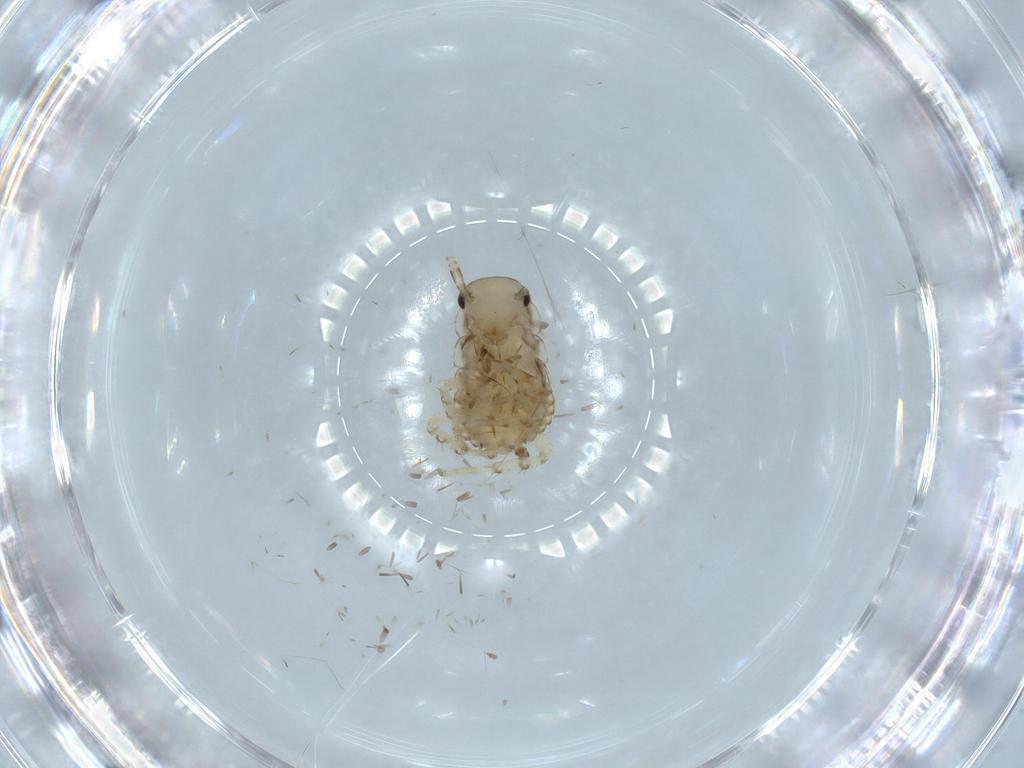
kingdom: Animalia
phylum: Arthropoda
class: Insecta
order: Blattodea
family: Ectobiidae
